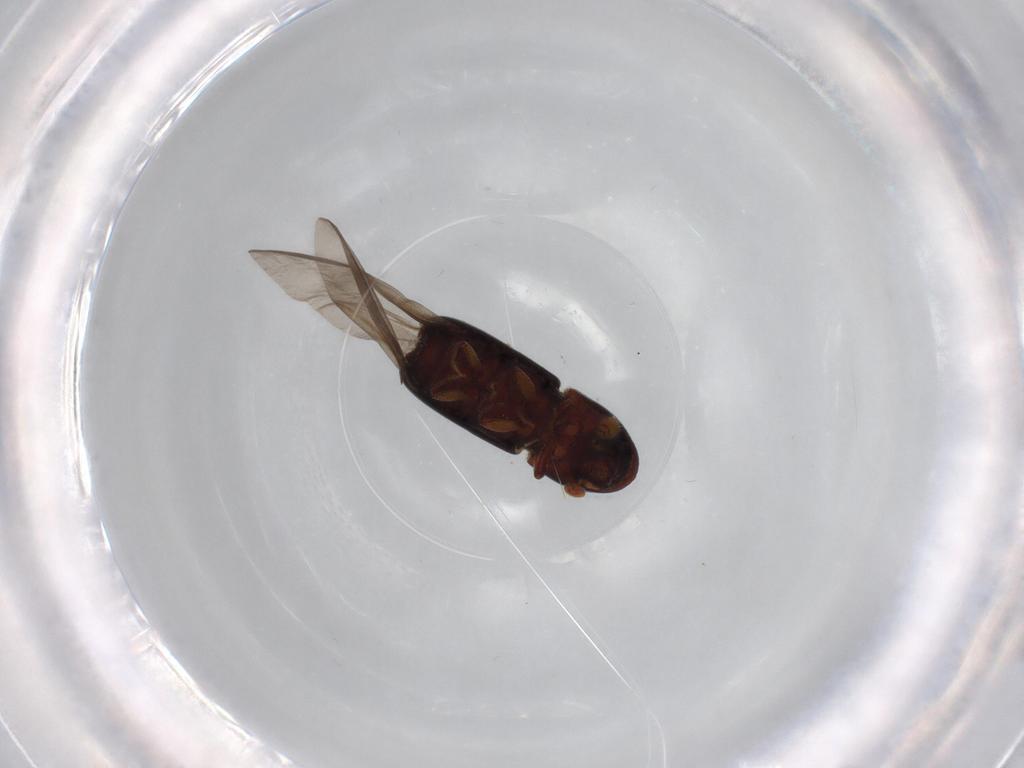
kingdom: Animalia
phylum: Arthropoda
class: Insecta
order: Coleoptera
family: Curculionidae
